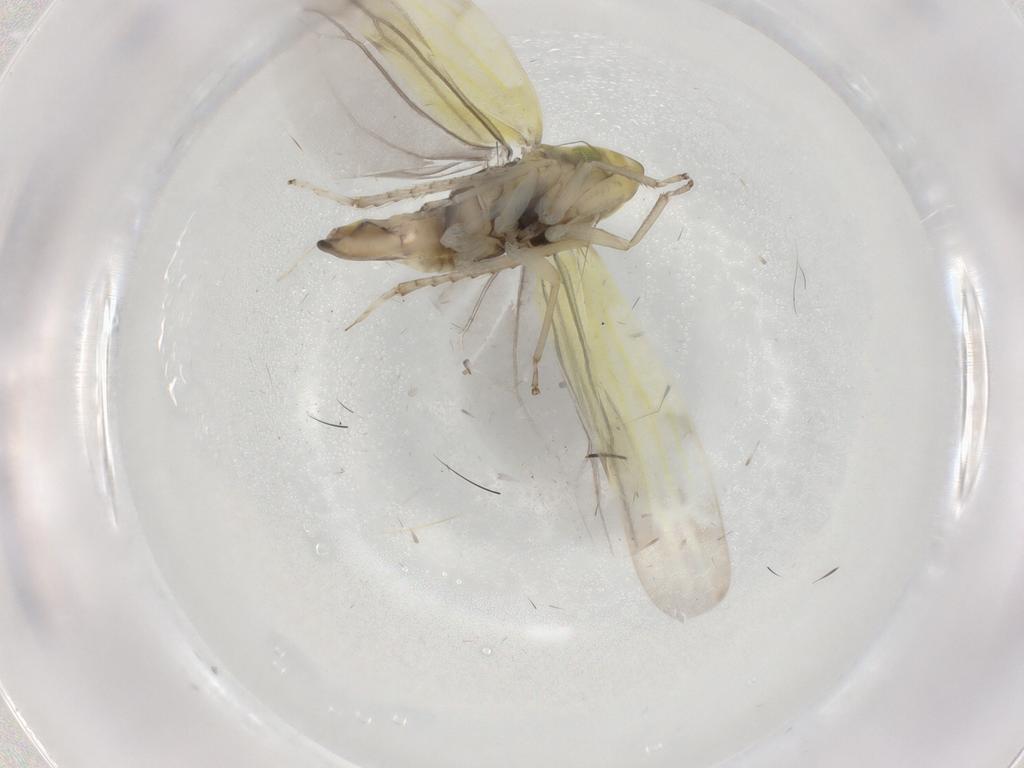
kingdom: Animalia
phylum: Arthropoda
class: Insecta
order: Hemiptera
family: Cicadellidae
